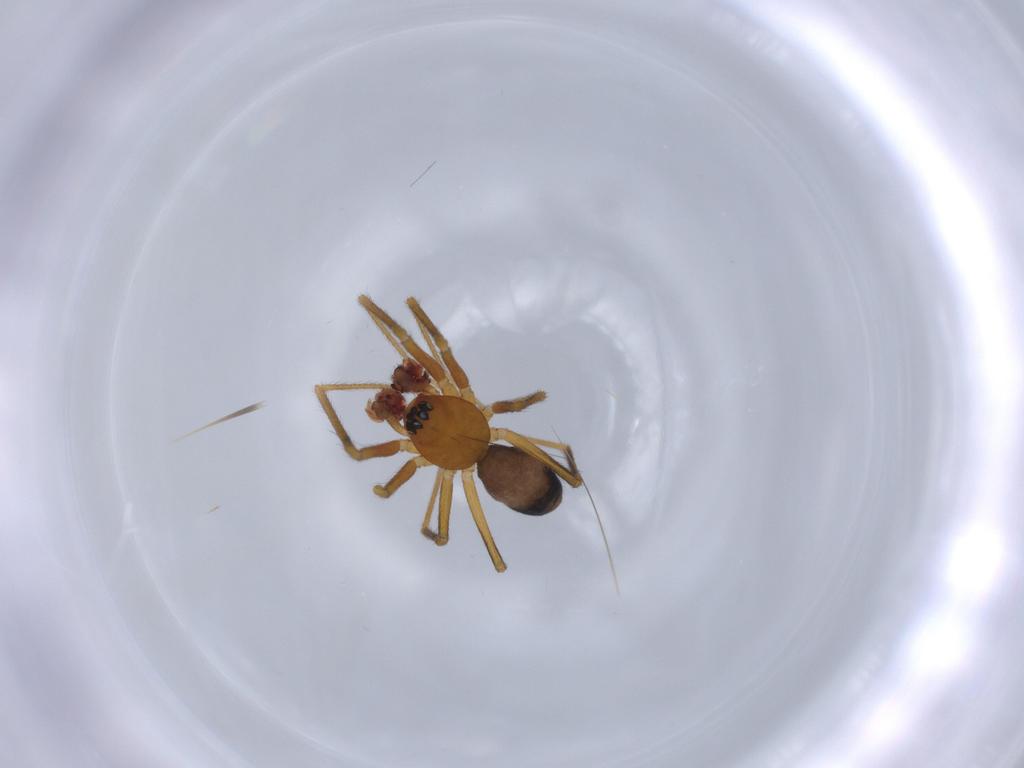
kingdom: Animalia
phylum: Arthropoda
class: Arachnida
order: Araneae
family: Linyphiidae
